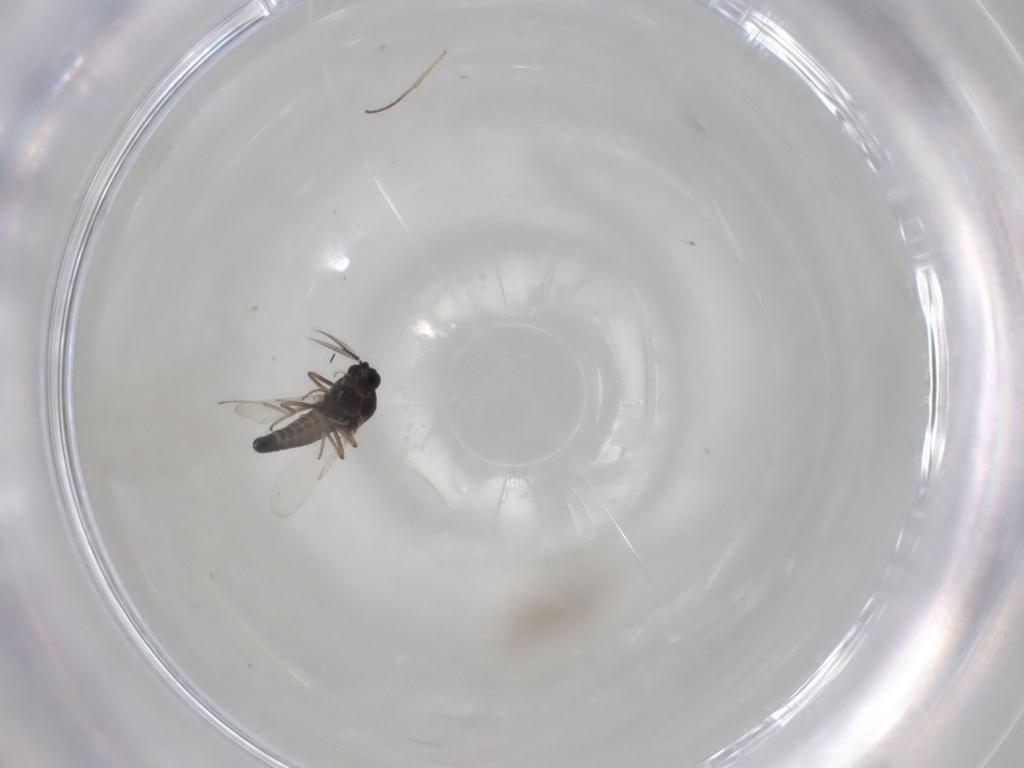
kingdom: Animalia
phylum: Arthropoda
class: Insecta
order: Diptera
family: Ceratopogonidae
